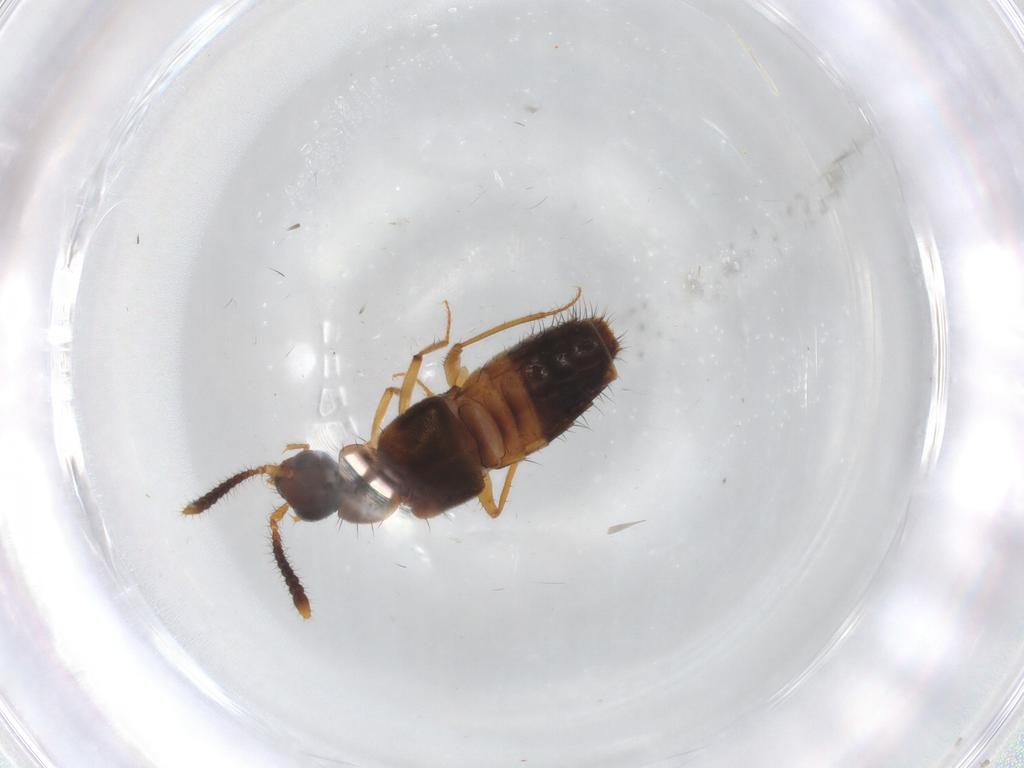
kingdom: Animalia
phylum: Arthropoda
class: Insecta
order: Coleoptera
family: Staphylinidae
